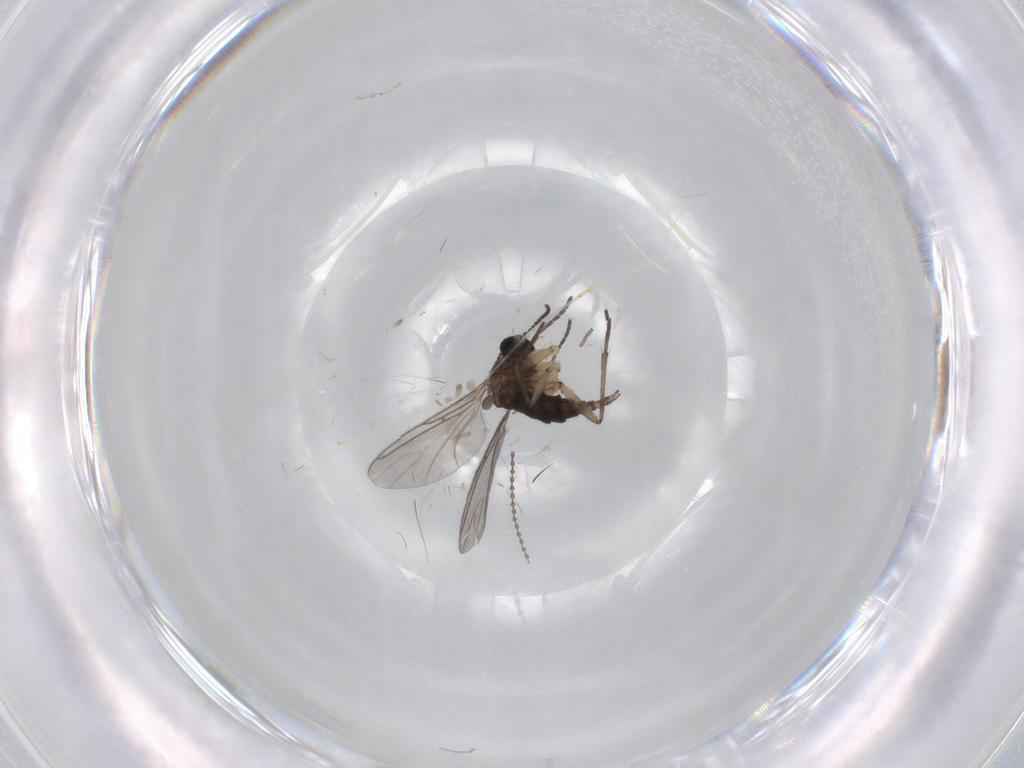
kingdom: Animalia
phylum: Arthropoda
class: Insecta
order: Diptera
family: Sciaridae
